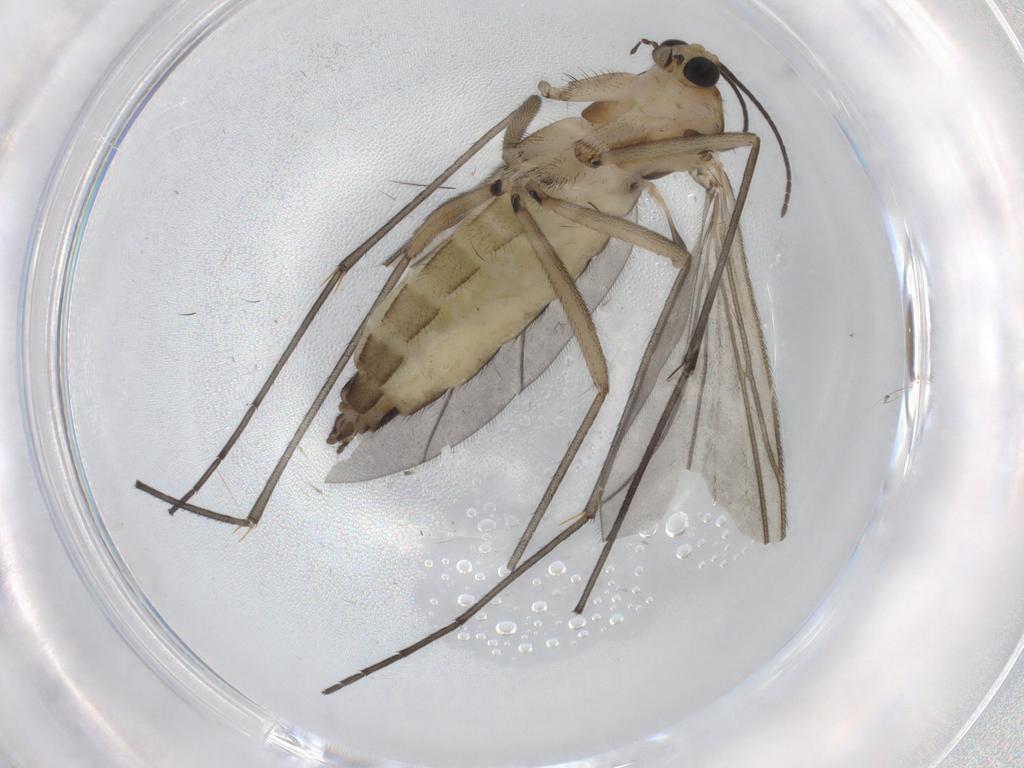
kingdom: Animalia
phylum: Arthropoda
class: Insecta
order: Diptera
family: Sciaridae
